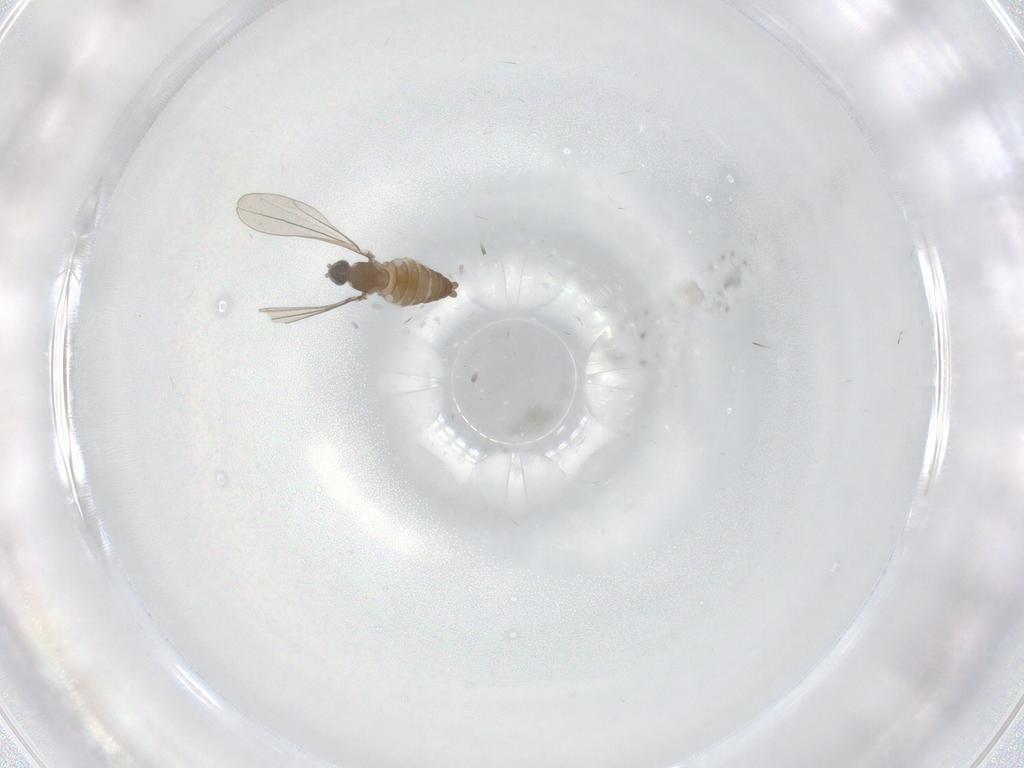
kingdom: Animalia
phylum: Arthropoda
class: Insecta
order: Diptera
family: Cecidomyiidae
